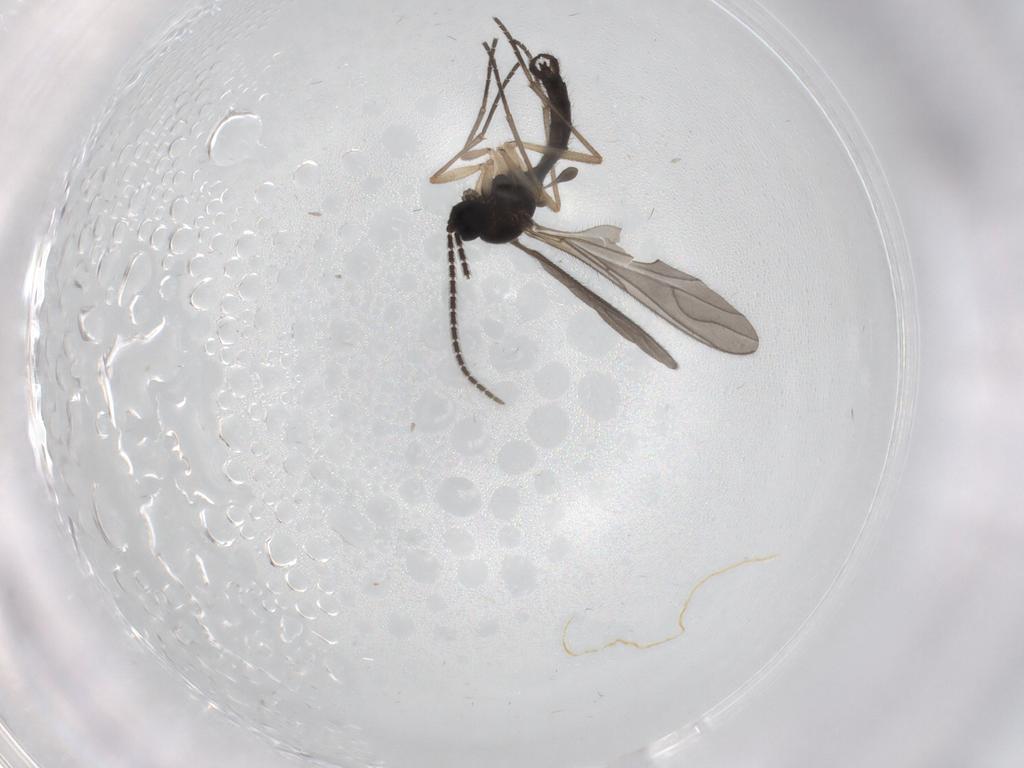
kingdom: Animalia
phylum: Arthropoda
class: Insecta
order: Diptera
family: Sciaridae
